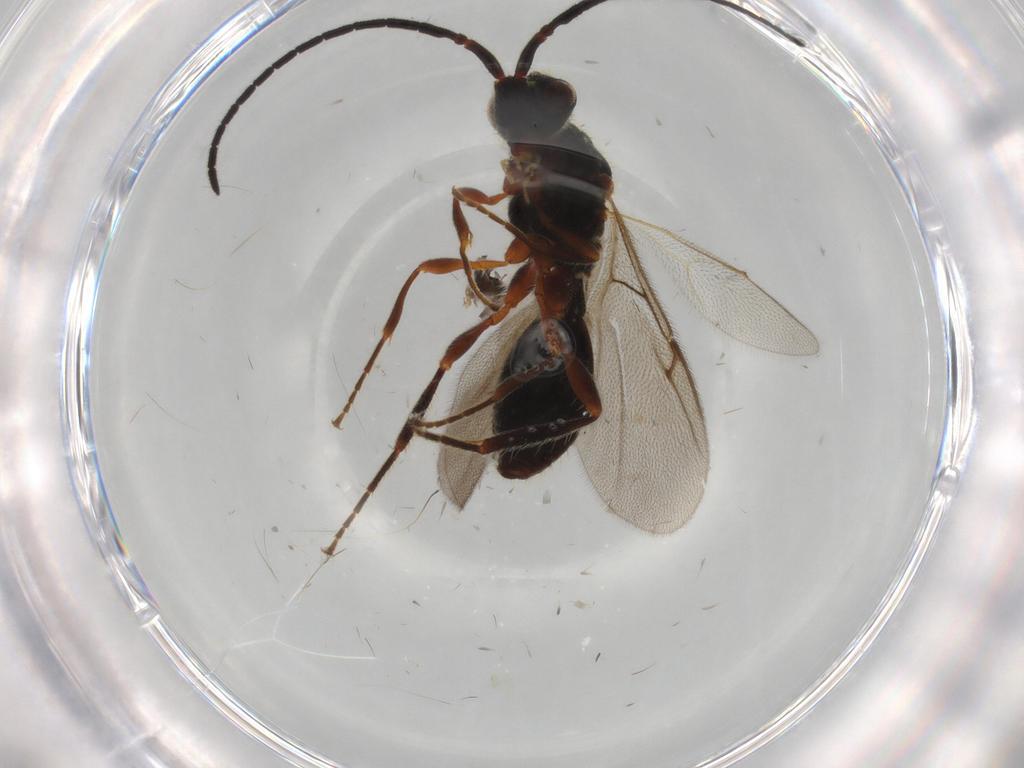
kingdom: Animalia
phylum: Arthropoda
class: Insecta
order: Hymenoptera
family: Diapriidae
